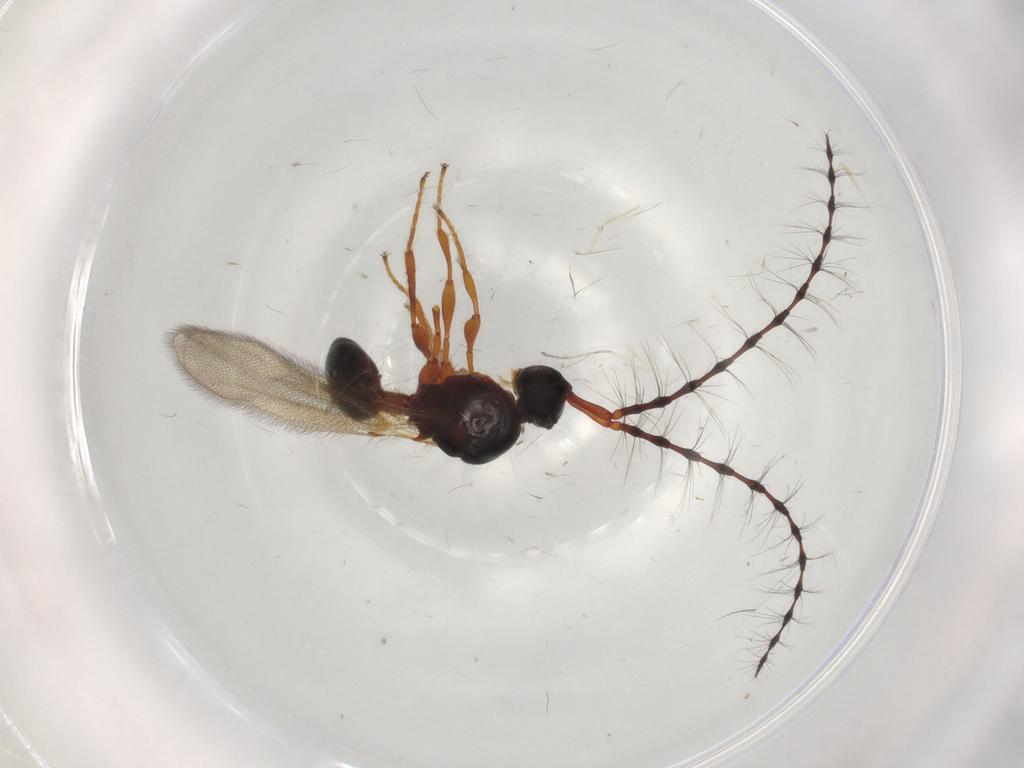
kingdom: Animalia
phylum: Arthropoda
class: Insecta
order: Hymenoptera
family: Diapriidae
